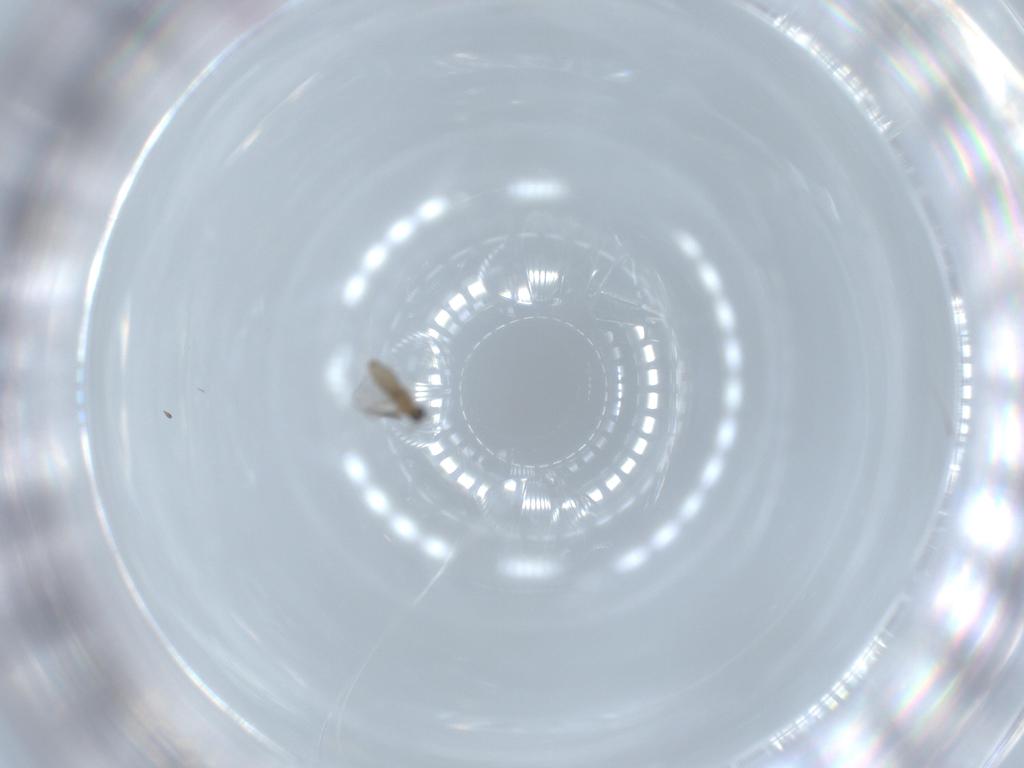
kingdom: Animalia
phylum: Arthropoda
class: Insecta
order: Diptera
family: Cecidomyiidae
